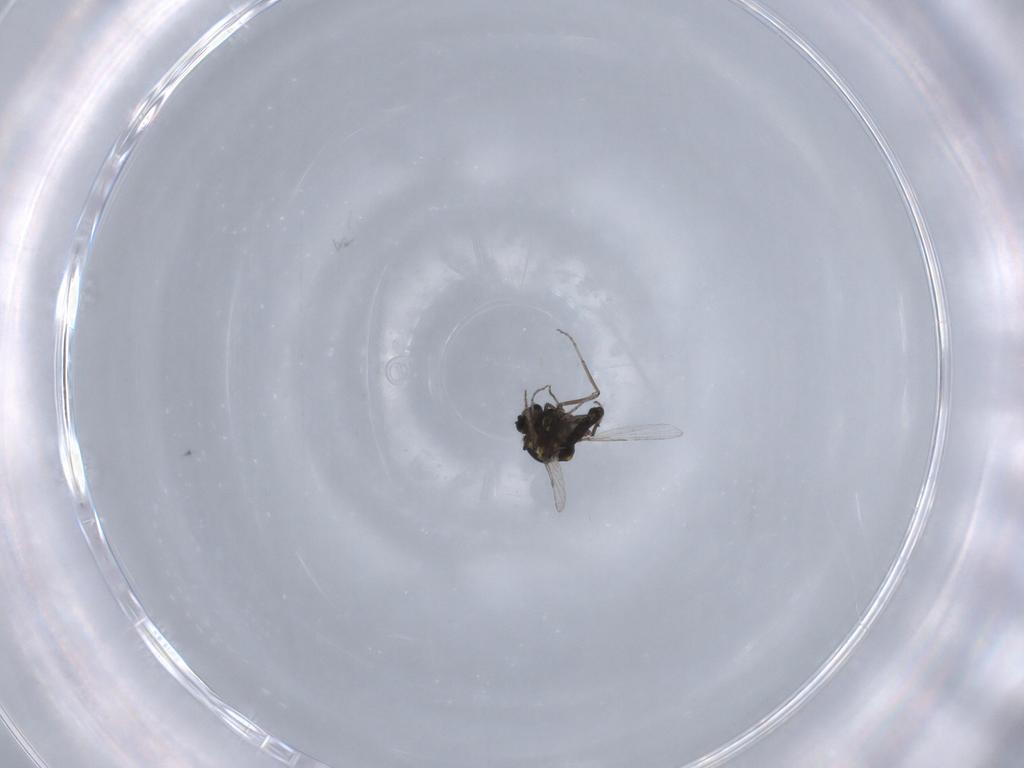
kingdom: Animalia
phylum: Arthropoda
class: Insecta
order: Diptera
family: Ceratopogonidae
